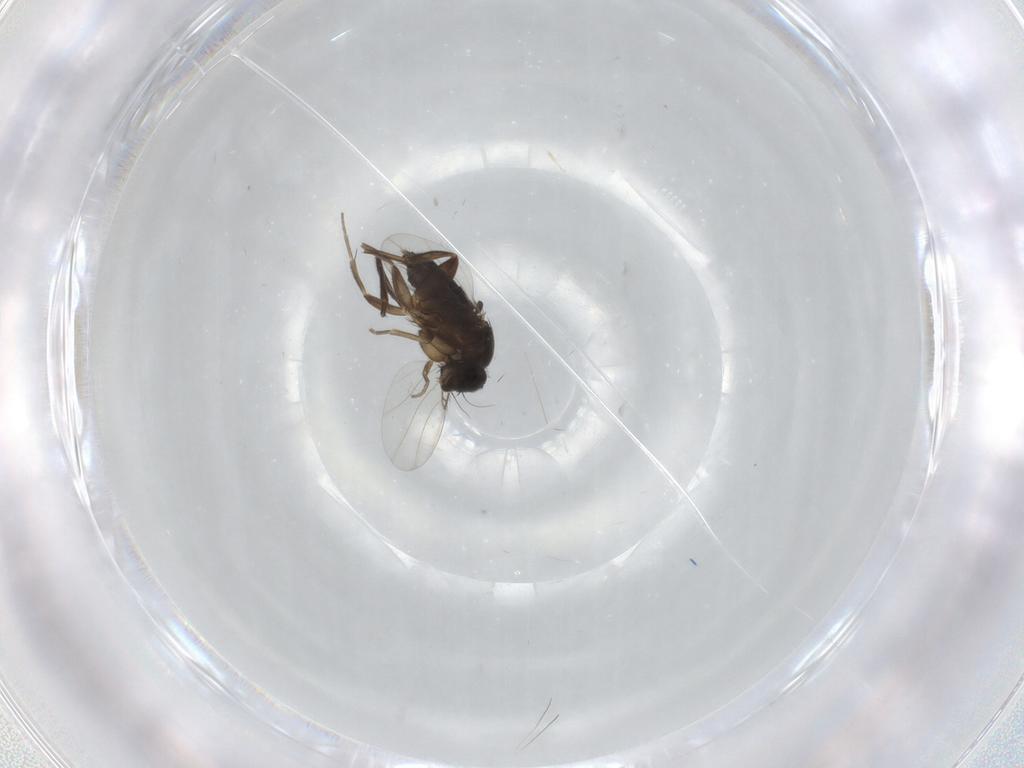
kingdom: Animalia
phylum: Arthropoda
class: Insecta
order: Diptera
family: Phoridae
